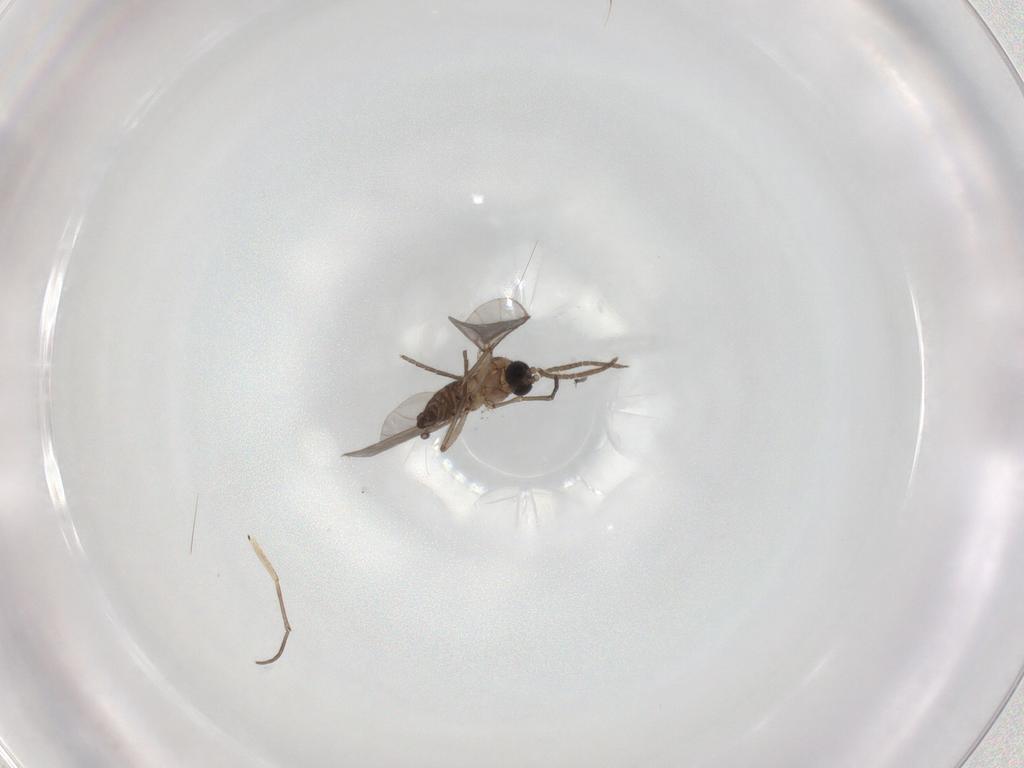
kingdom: Animalia
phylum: Arthropoda
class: Insecta
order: Diptera
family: Sciaridae
